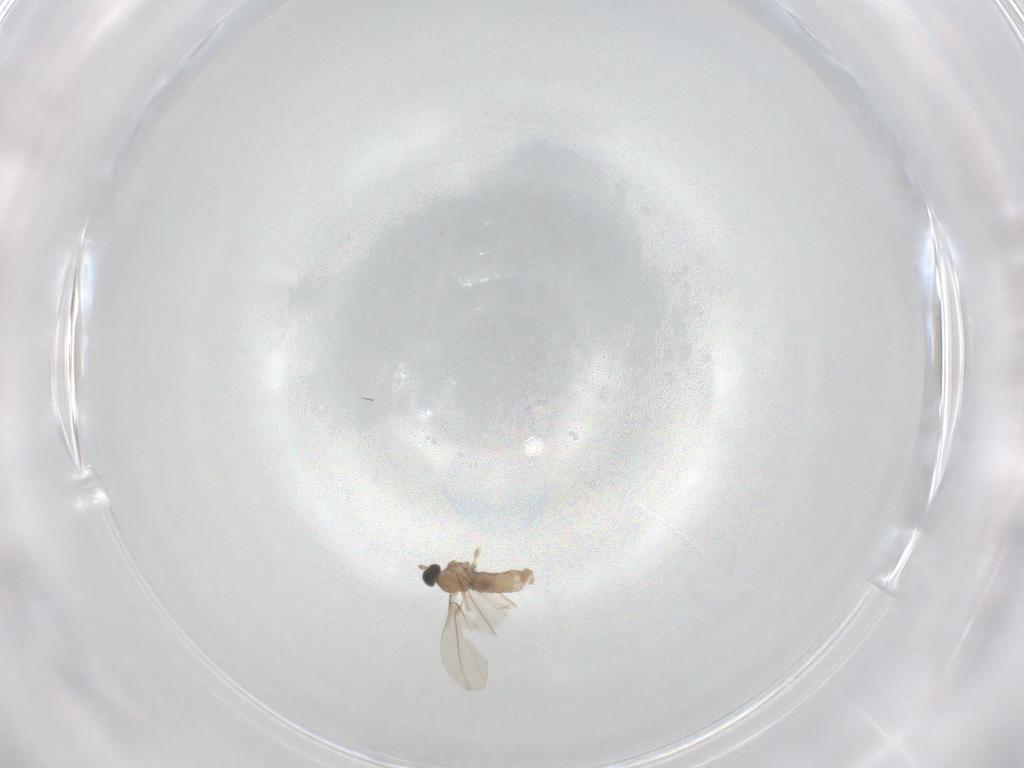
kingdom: Animalia
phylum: Arthropoda
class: Insecta
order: Diptera
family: Cecidomyiidae
